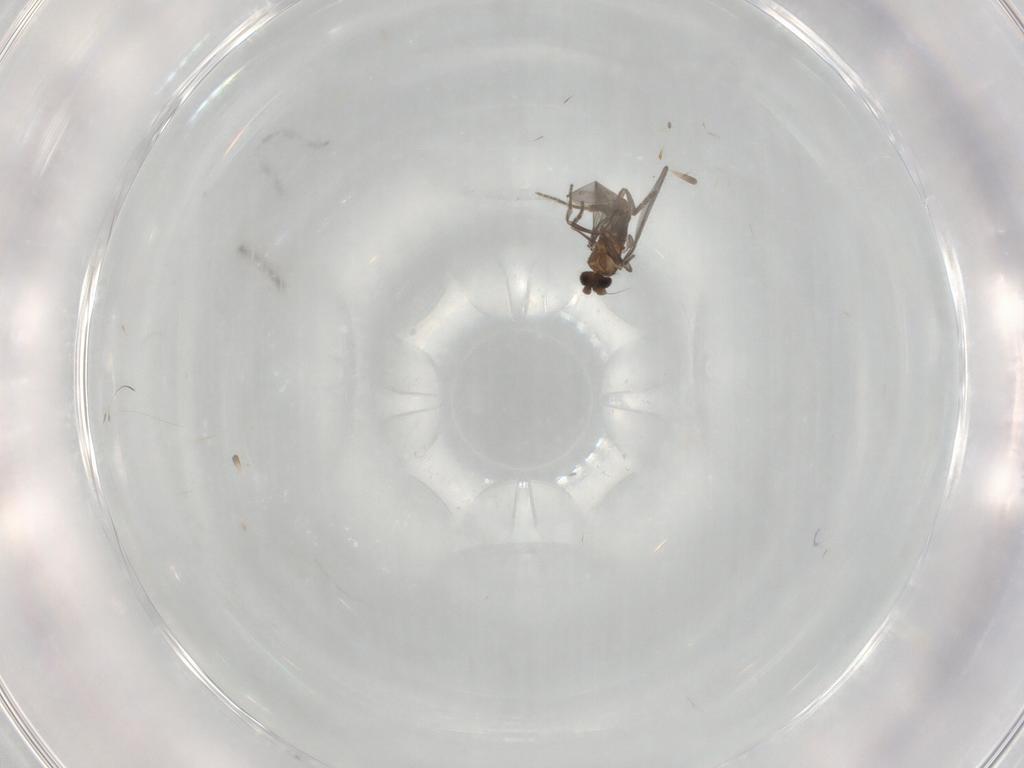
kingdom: Animalia
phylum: Arthropoda
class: Insecta
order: Diptera
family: Phoridae
